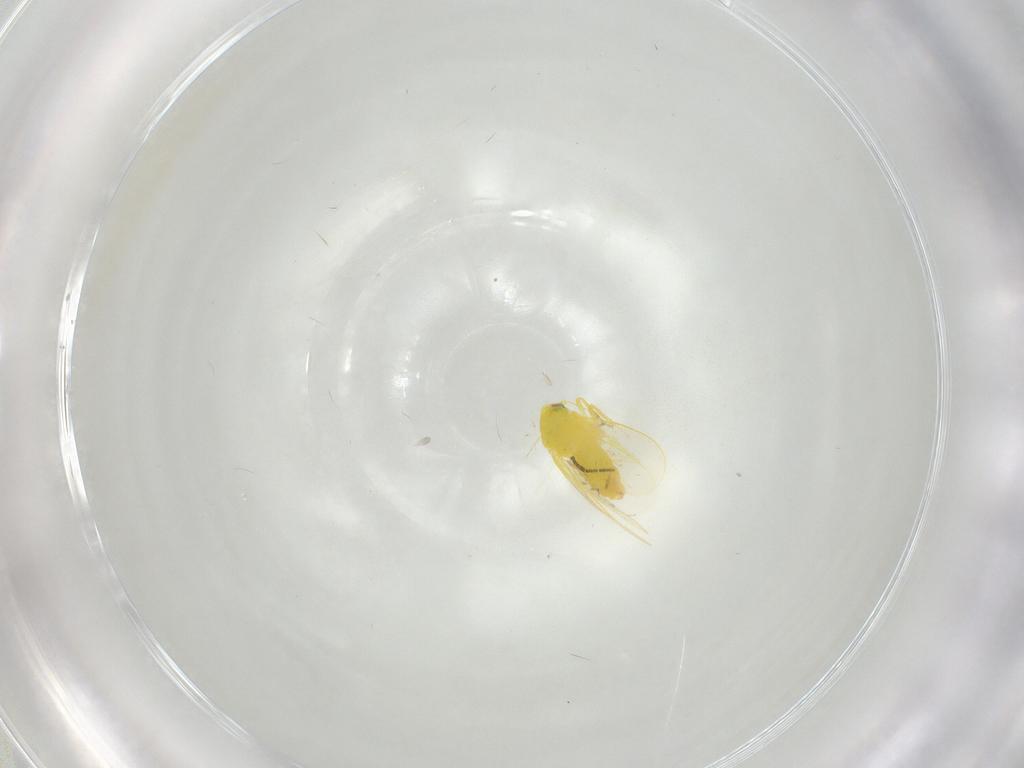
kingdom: Animalia
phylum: Arthropoda
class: Insecta
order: Hemiptera
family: Aleyrodidae
